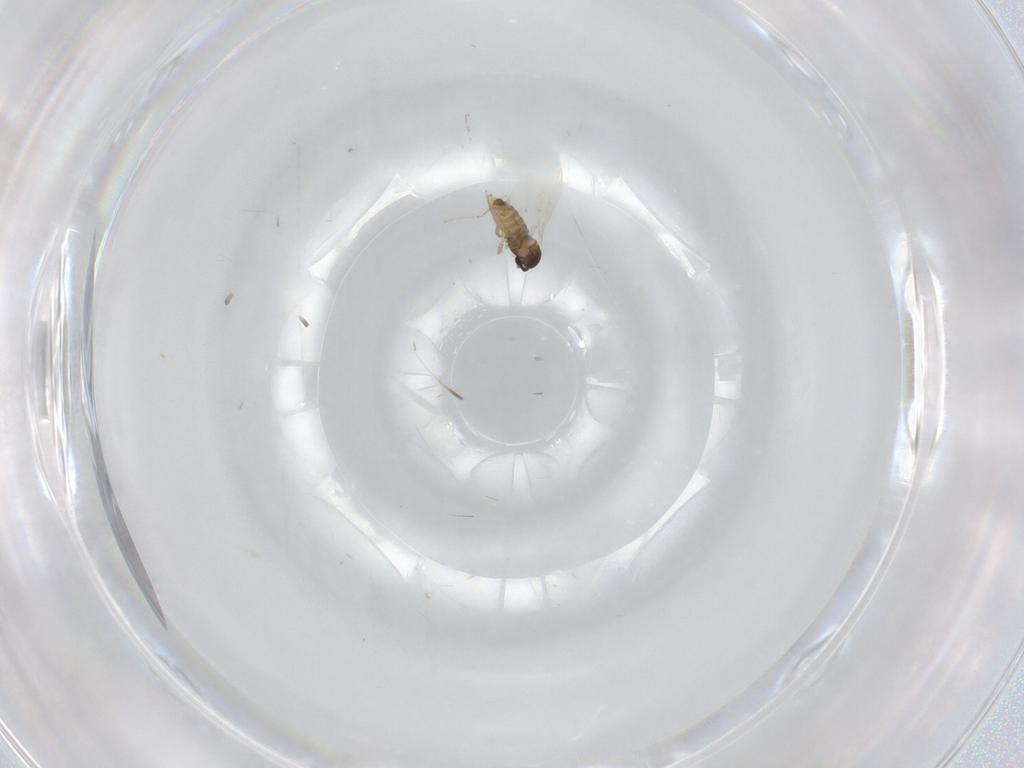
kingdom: Animalia
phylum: Arthropoda
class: Insecta
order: Diptera
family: Cecidomyiidae
